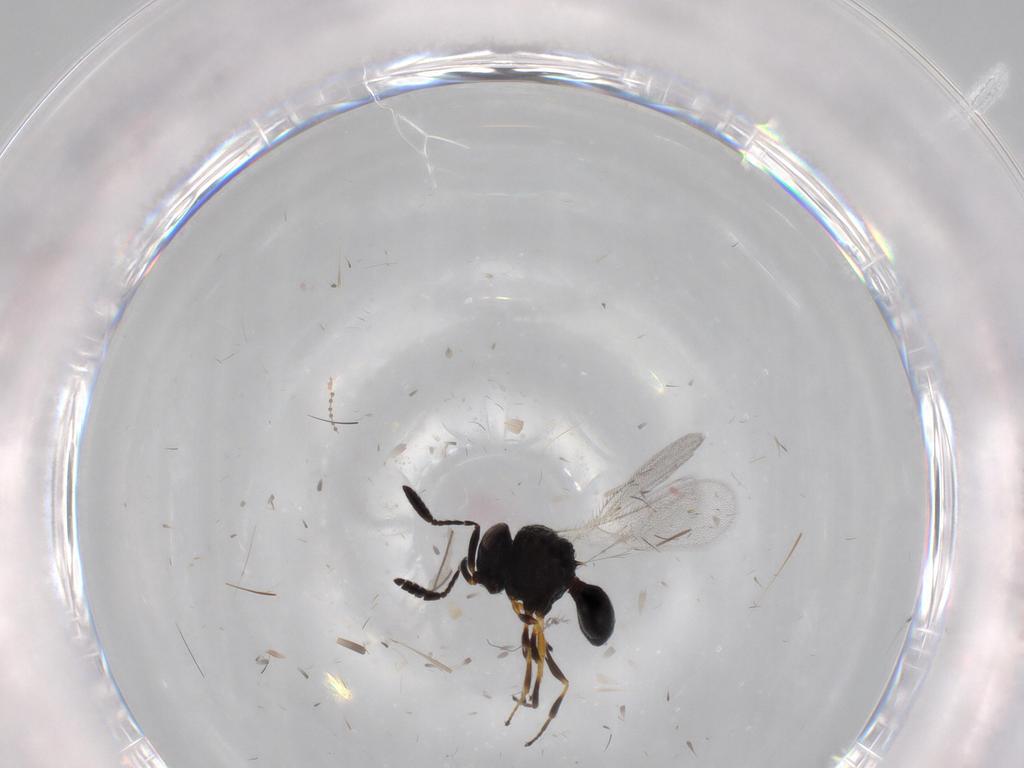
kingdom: Animalia
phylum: Arthropoda
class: Insecta
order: Hymenoptera
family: Scelionidae
